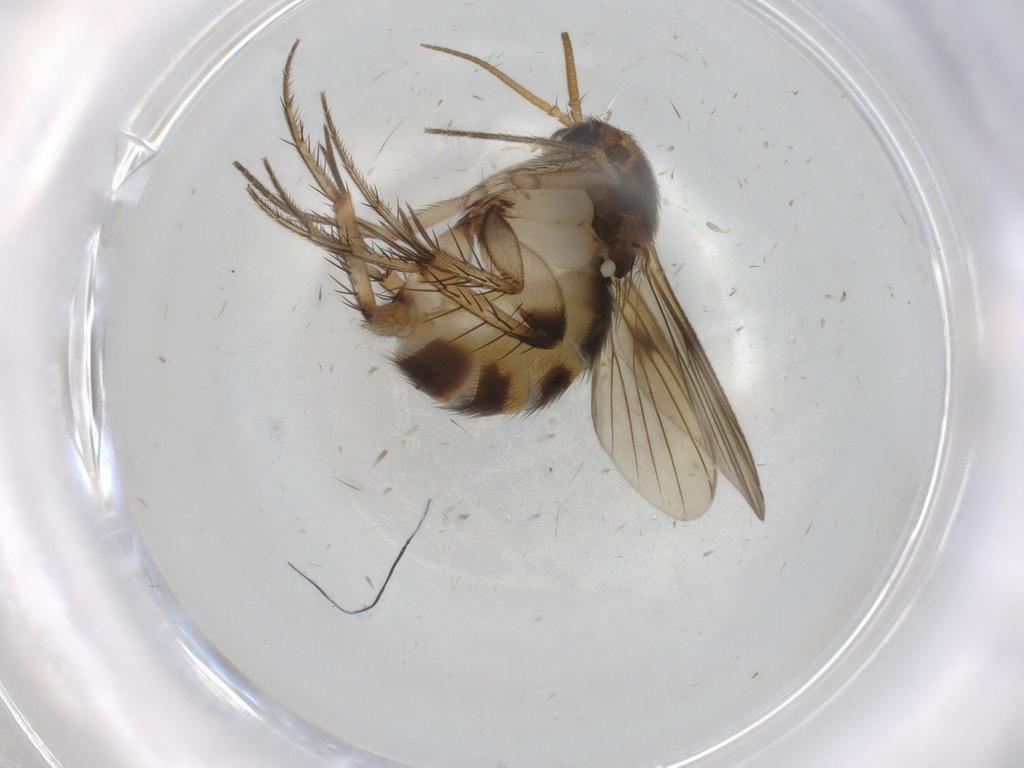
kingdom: Animalia
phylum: Arthropoda
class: Insecta
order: Diptera
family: Mycetophilidae
